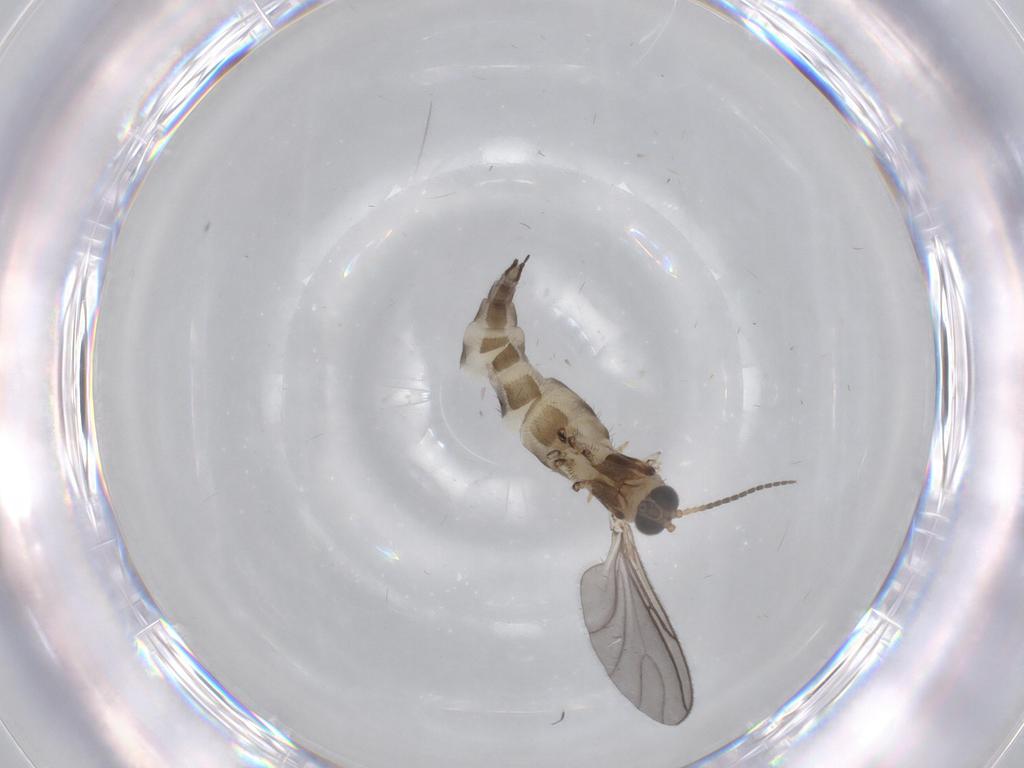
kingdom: Animalia
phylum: Arthropoda
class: Insecta
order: Diptera
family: Sciaridae
